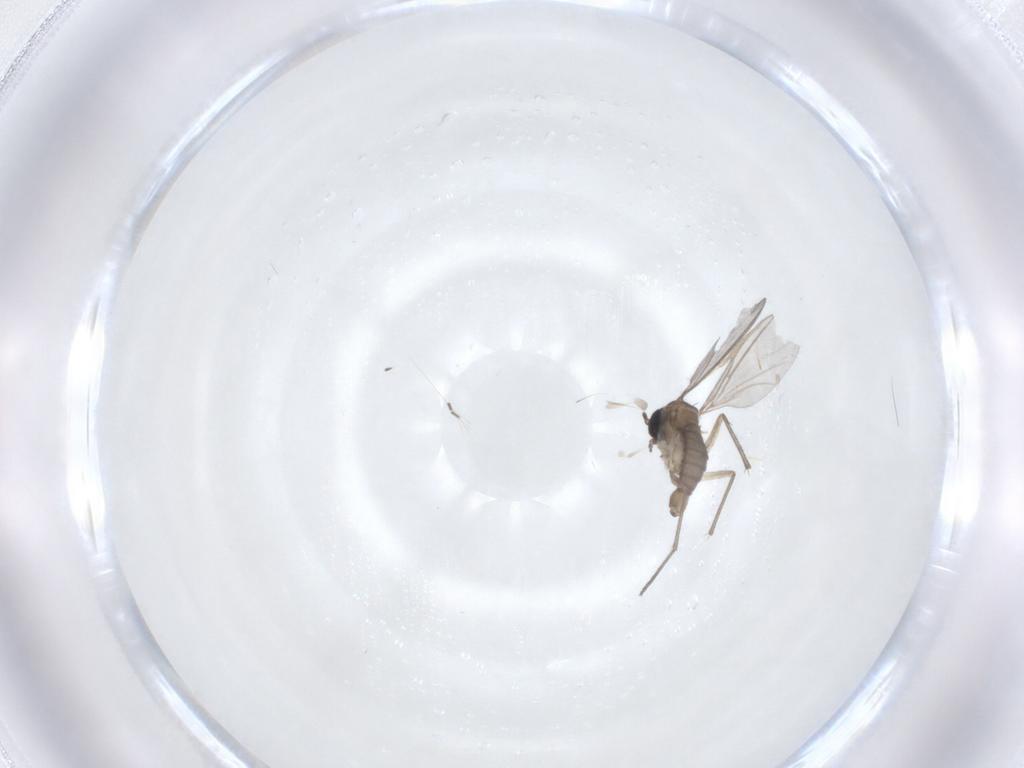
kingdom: Animalia
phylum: Arthropoda
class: Insecta
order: Diptera
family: Sciaridae
